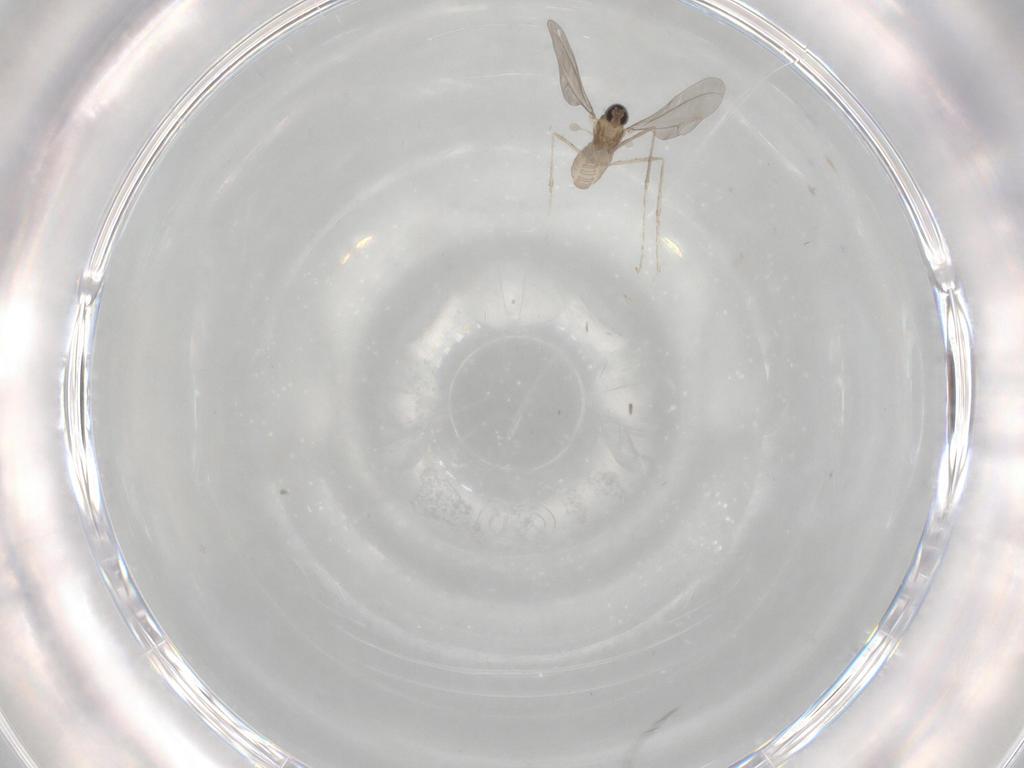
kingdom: Animalia
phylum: Arthropoda
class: Insecta
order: Diptera
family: Cecidomyiidae
